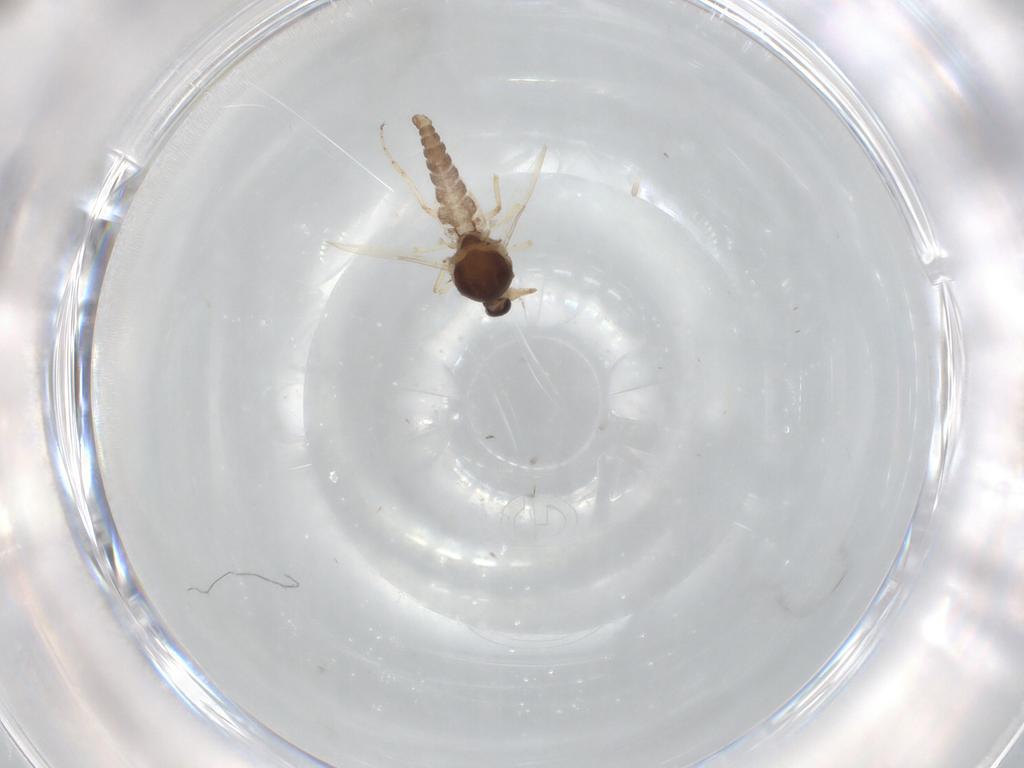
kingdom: Animalia
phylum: Arthropoda
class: Insecta
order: Diptera
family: Ceratopogonidae
